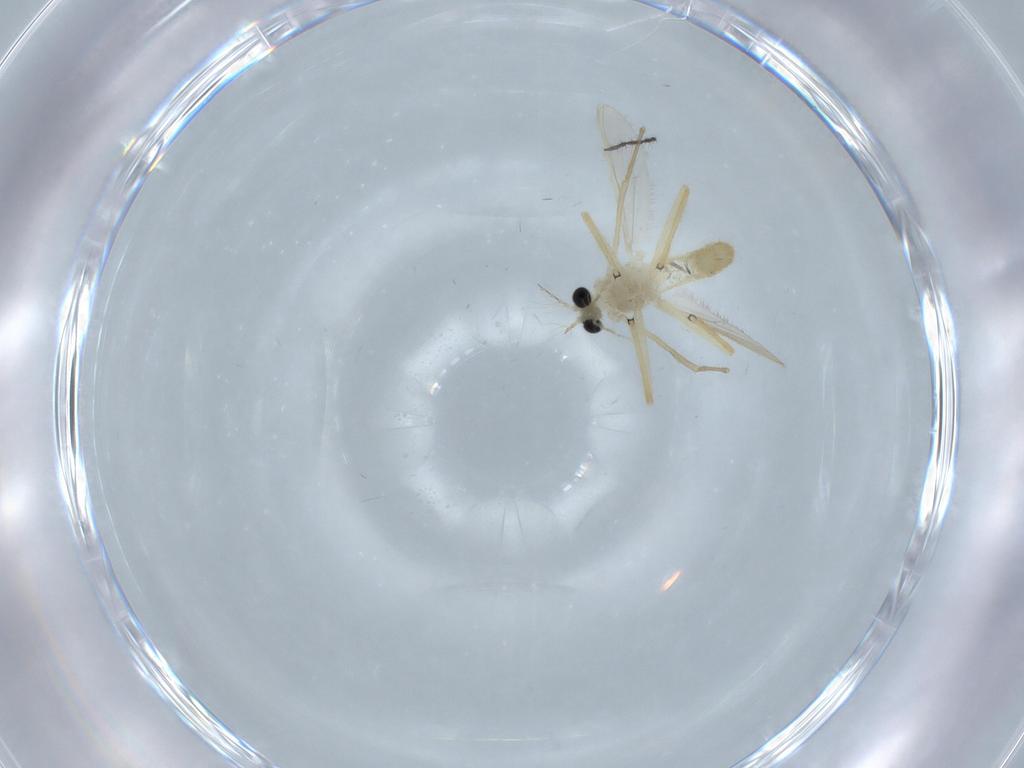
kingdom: Animalia
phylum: Arthropoda
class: Insecta
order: Diptera
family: Chironomidae
